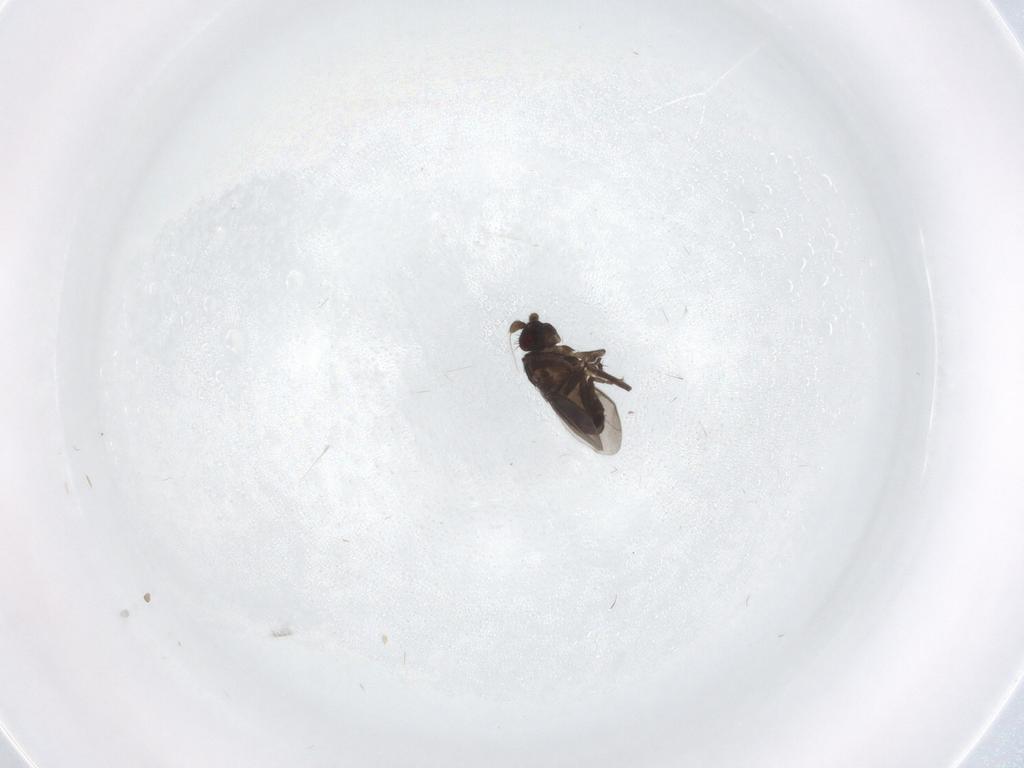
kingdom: Animalia
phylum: Arthropoda
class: Insecta
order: Diptera
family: Sphaeroceridae
